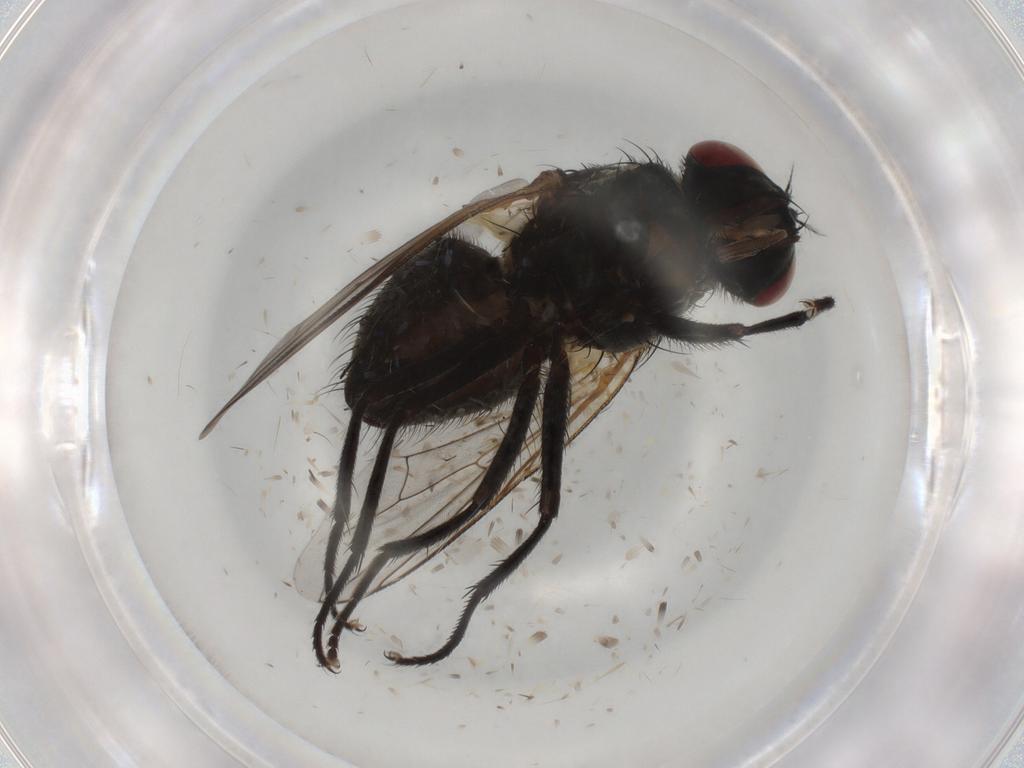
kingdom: Animalia
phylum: Arthropoda
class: Insecta
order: Diptera
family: Muscidae
